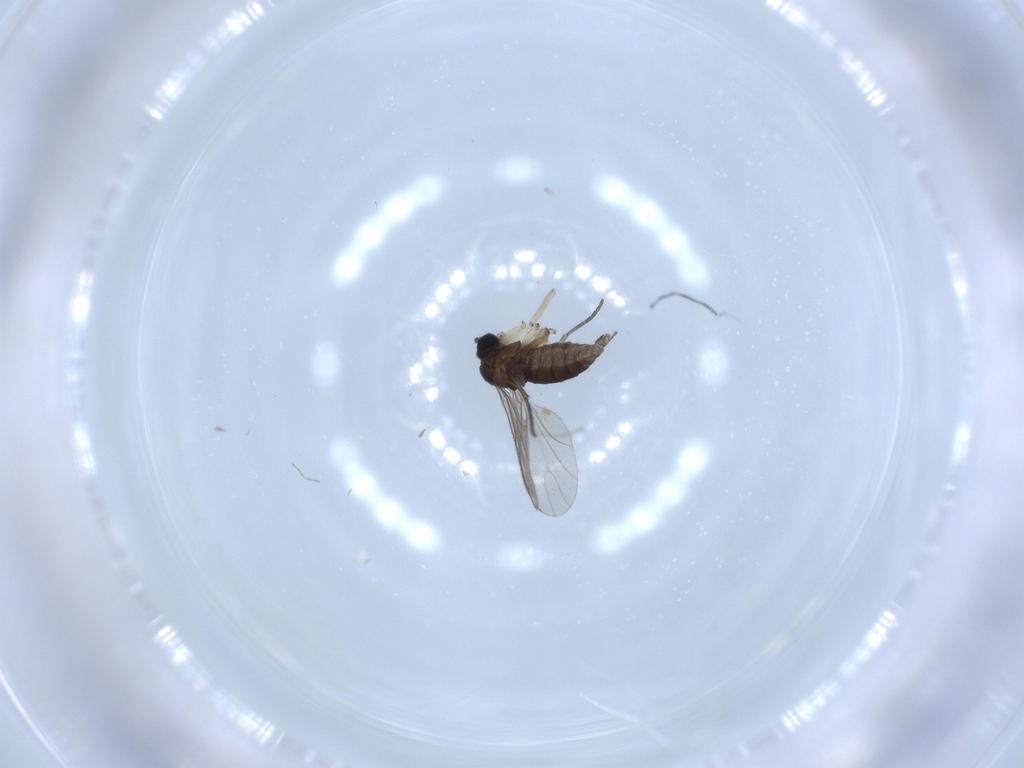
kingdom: Animalia
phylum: Arthropoda
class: Insecta
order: Diptera
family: Sciaridae
